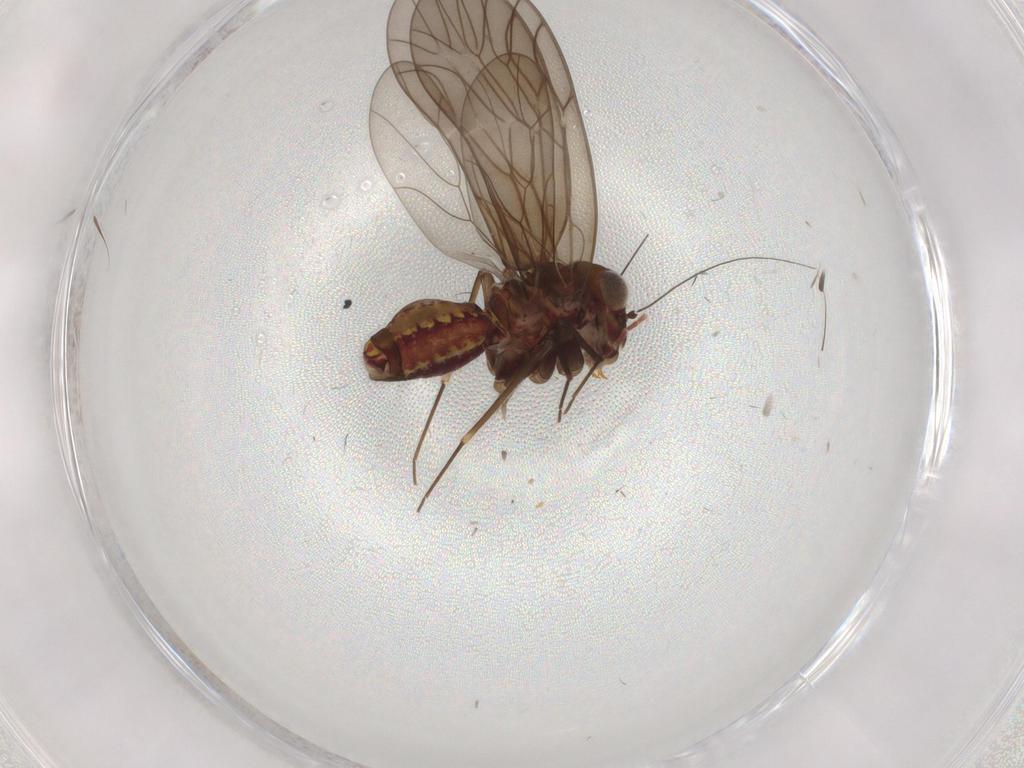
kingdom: Animalia
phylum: Arthropoda
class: Insecta
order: Psocodea
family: Philotarsidae
